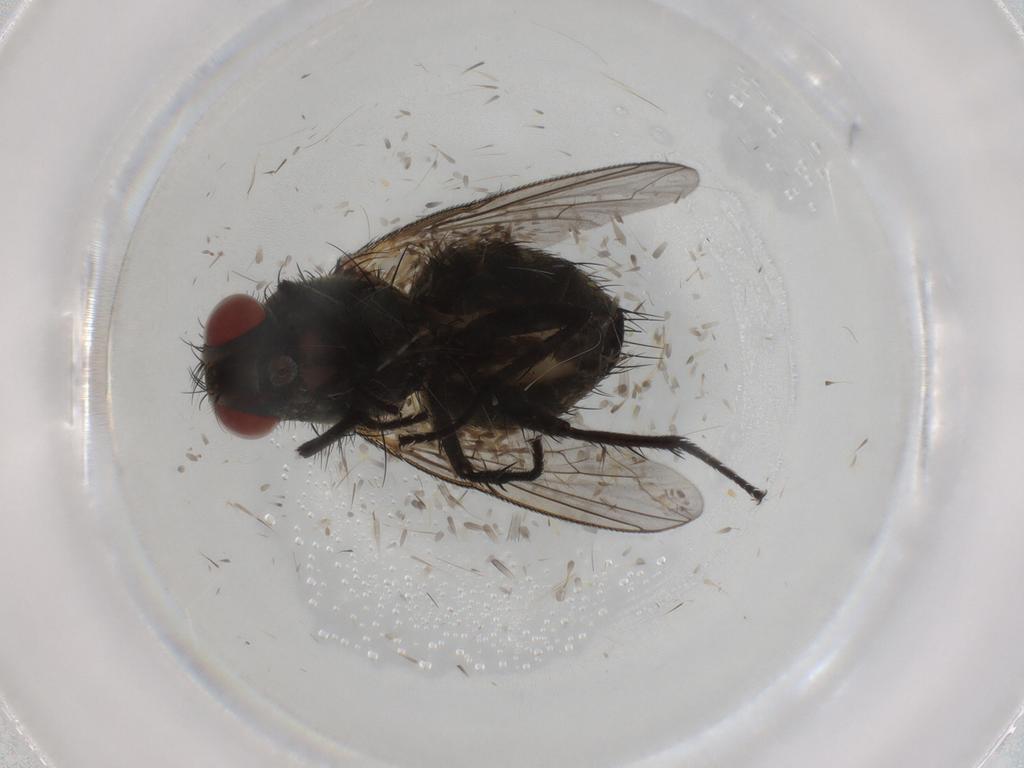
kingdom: Animalia
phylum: Arthropoda
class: Insecta
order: Diptera
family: Sarcophagidae
